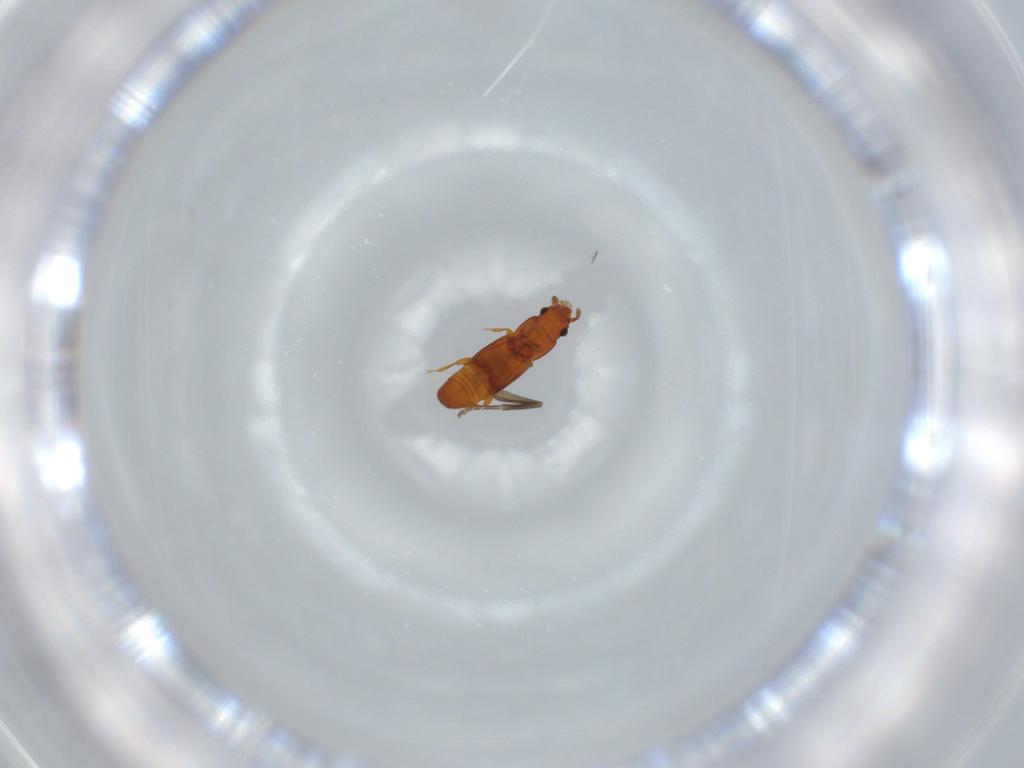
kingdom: Animalia
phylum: Arthropoda
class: Insecta
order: Coleoptera
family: Smicripidae
